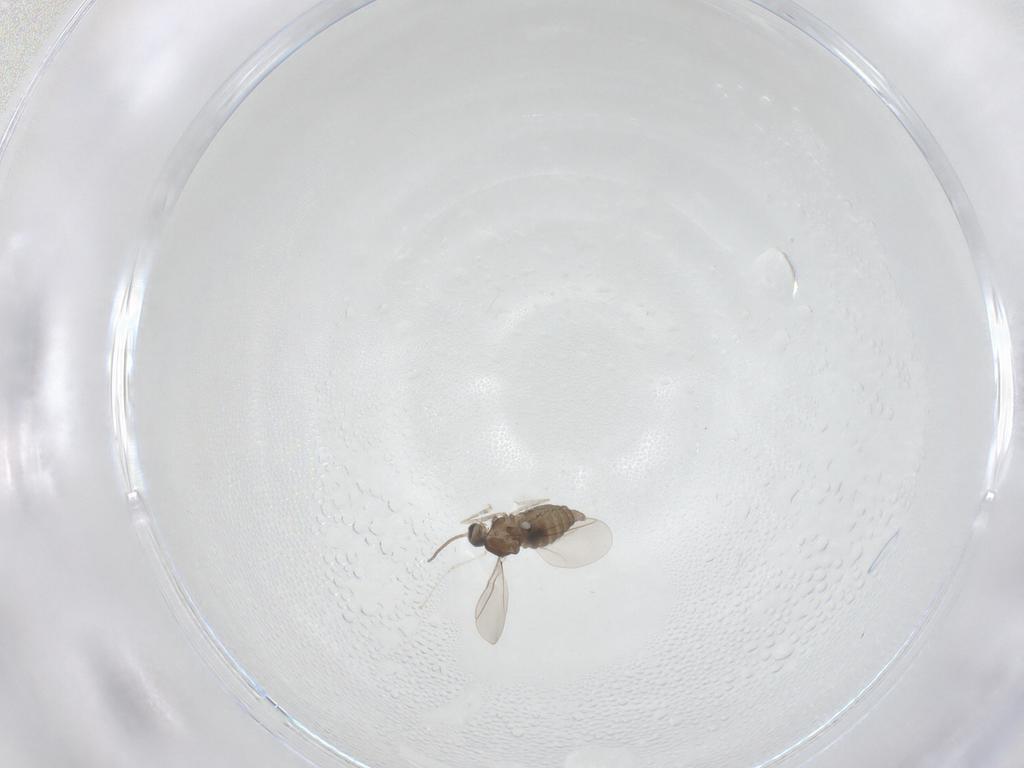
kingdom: Animalia
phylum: Arthropoda
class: Insecta
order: Diptera
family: Cecidomyiidae
